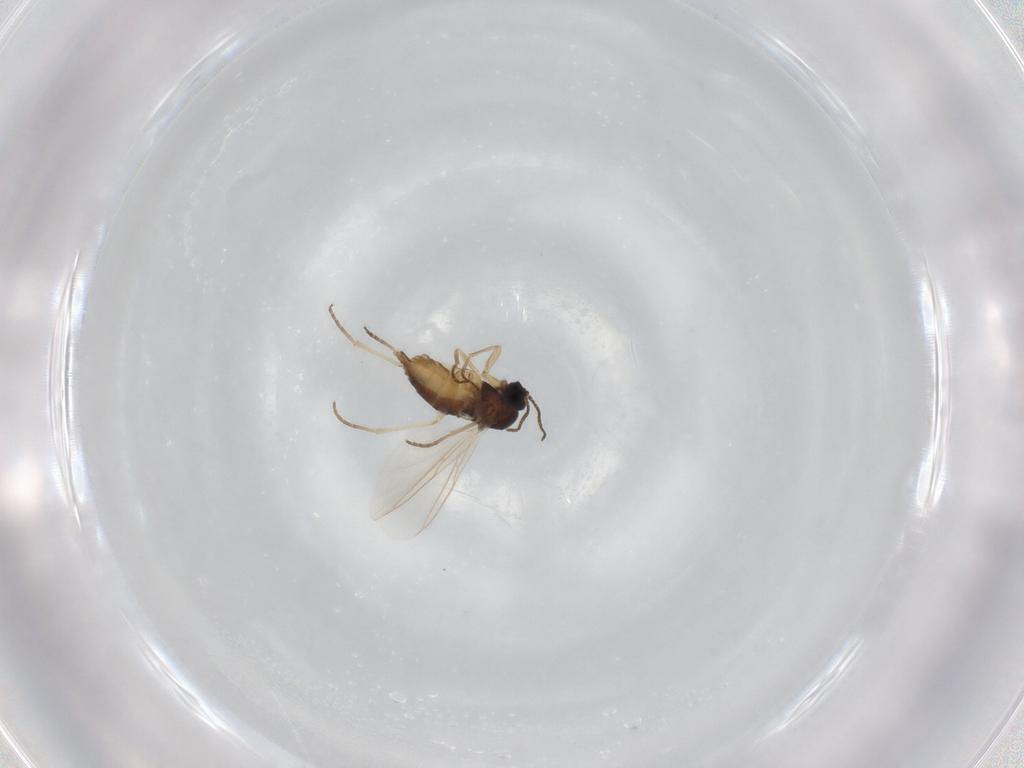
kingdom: Animalia
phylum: Arthropoda
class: Insecta
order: Diptera
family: Sciaridae
